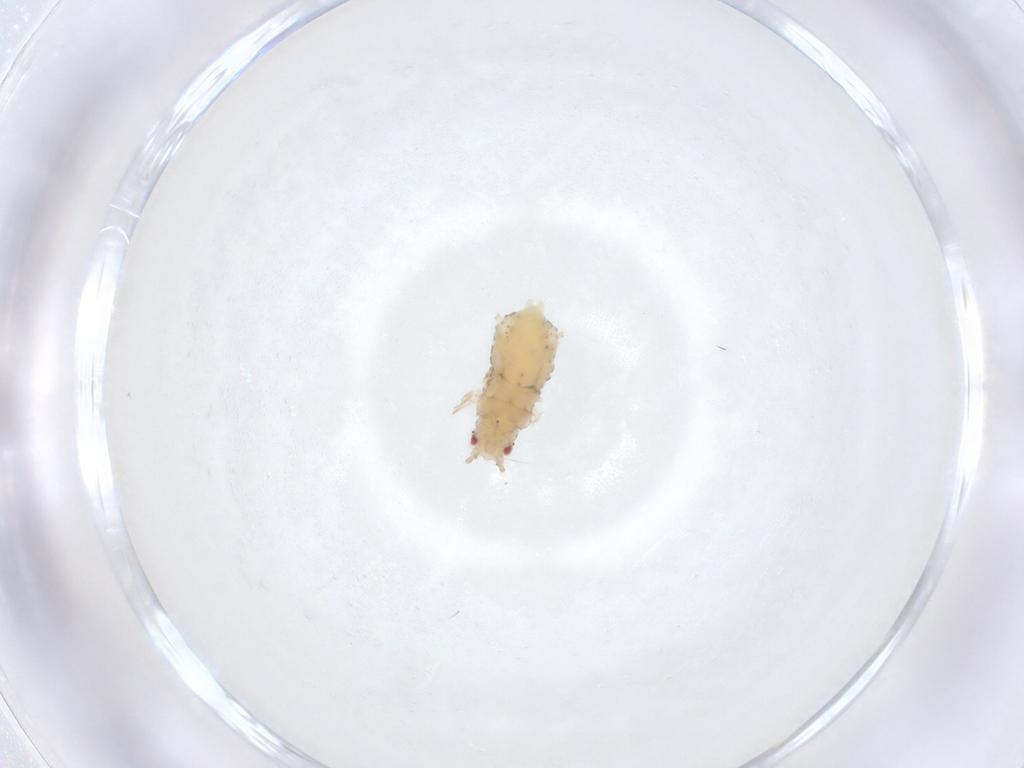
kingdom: Animalia
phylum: Arthropoda
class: Insecta
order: Hemiptera
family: Aphididae
